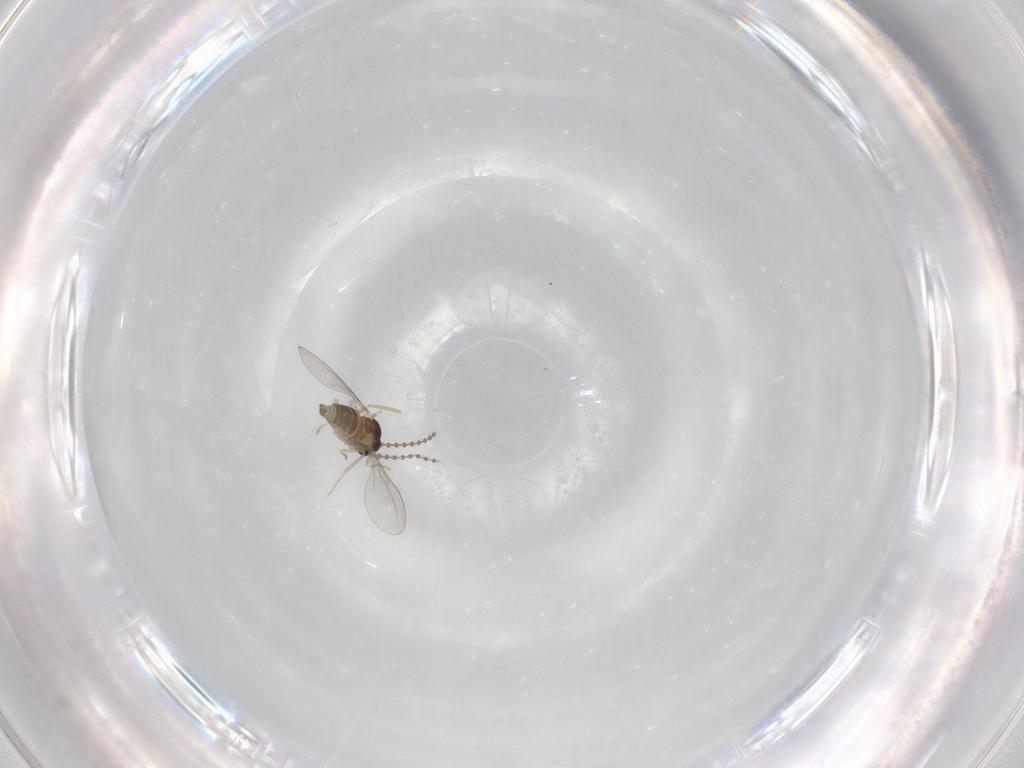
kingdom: Animalia
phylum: Arthropoda
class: Insecta
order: Diptera
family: Cecidomyiidae
